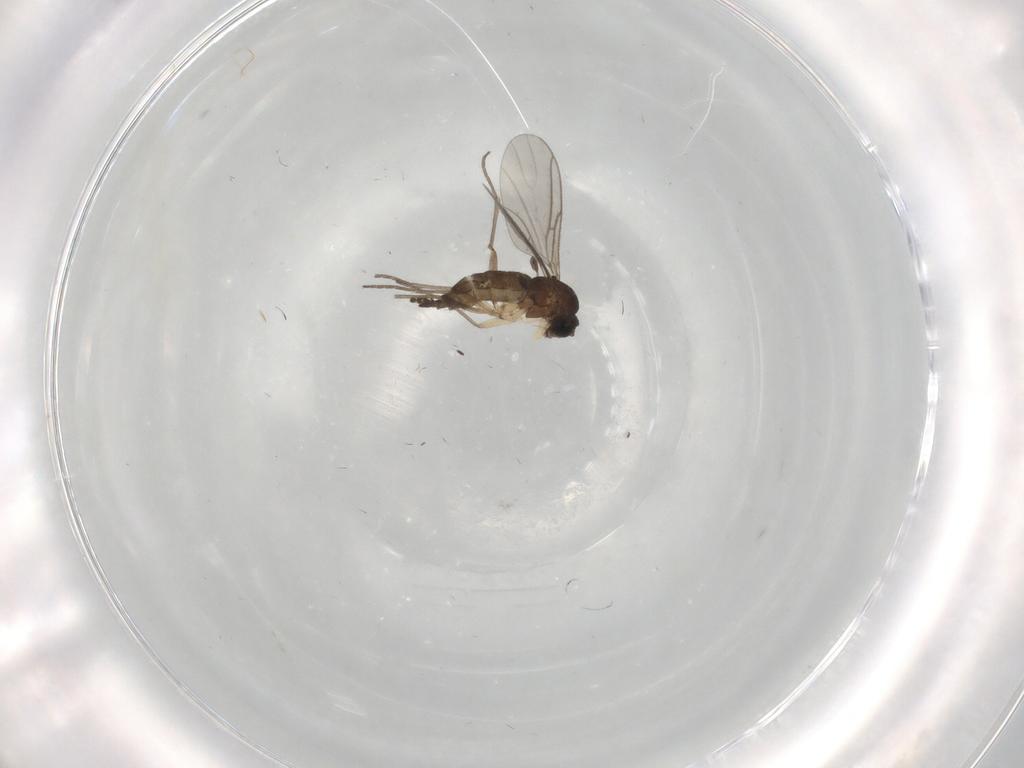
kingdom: Animalia
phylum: Arthropoda
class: Insecta
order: Diptera
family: Sciaridae
